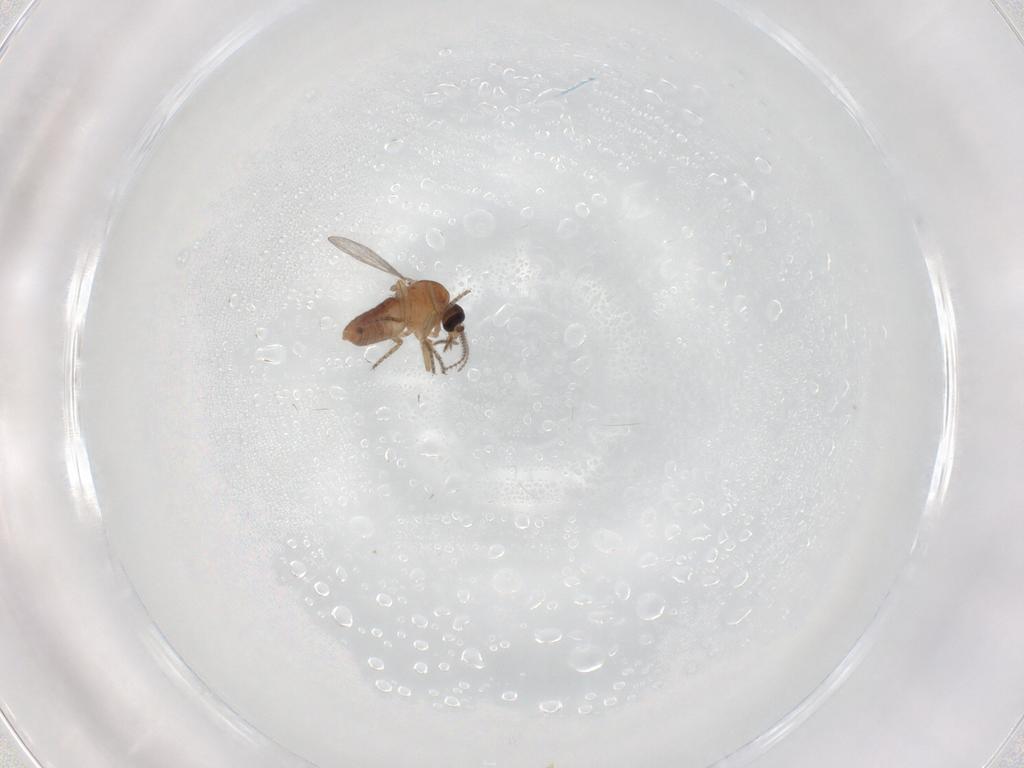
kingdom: Animalia
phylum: Arthropoda
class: Insecta
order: Diptera
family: Ceratopogonidae
